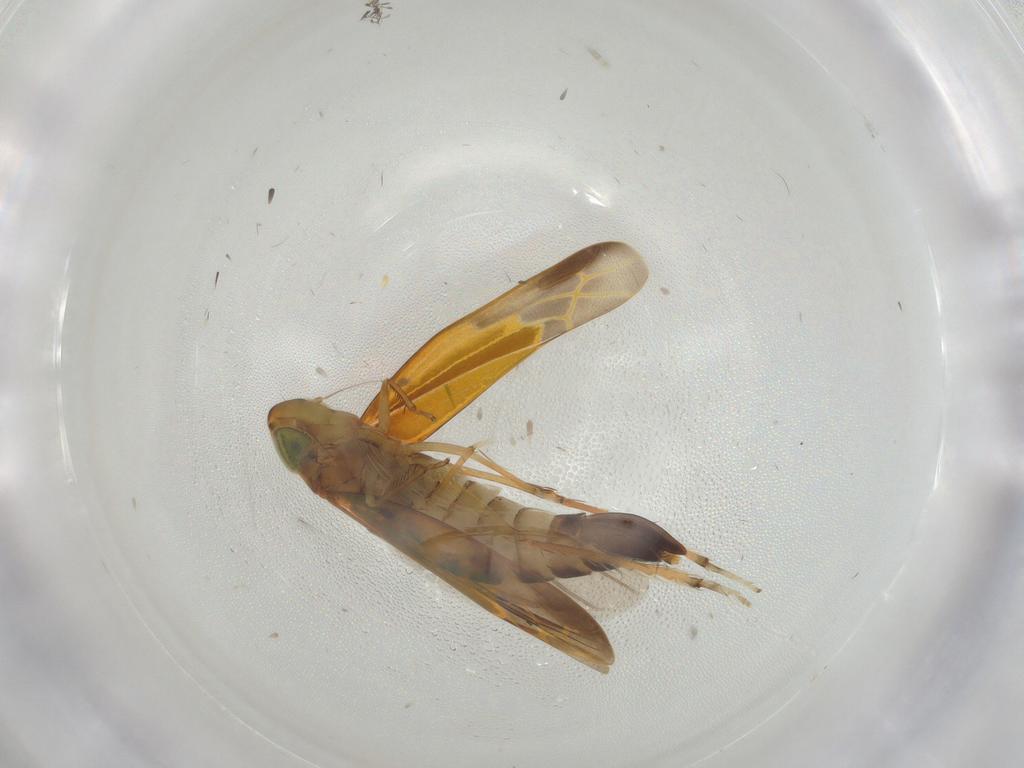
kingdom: Animalia
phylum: Arthropoda
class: Insecta
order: Hemiptera
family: Cicadellidae
